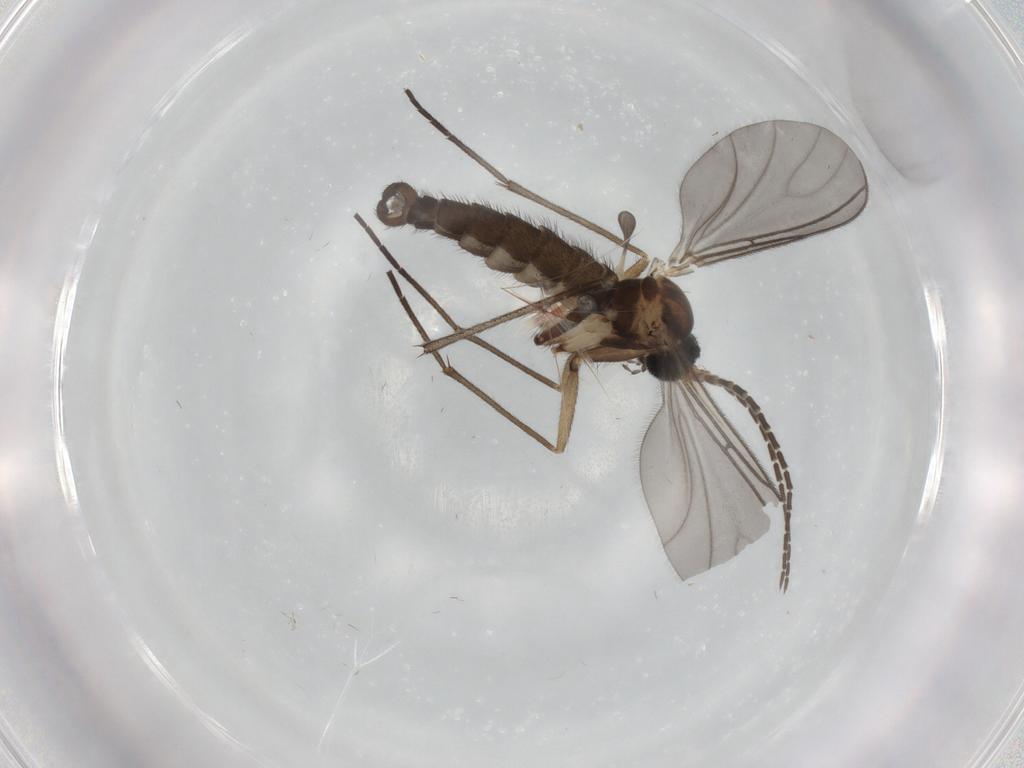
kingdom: Animalia
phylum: Arthropoda
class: Insecta
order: Diptera
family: Sciaridae
